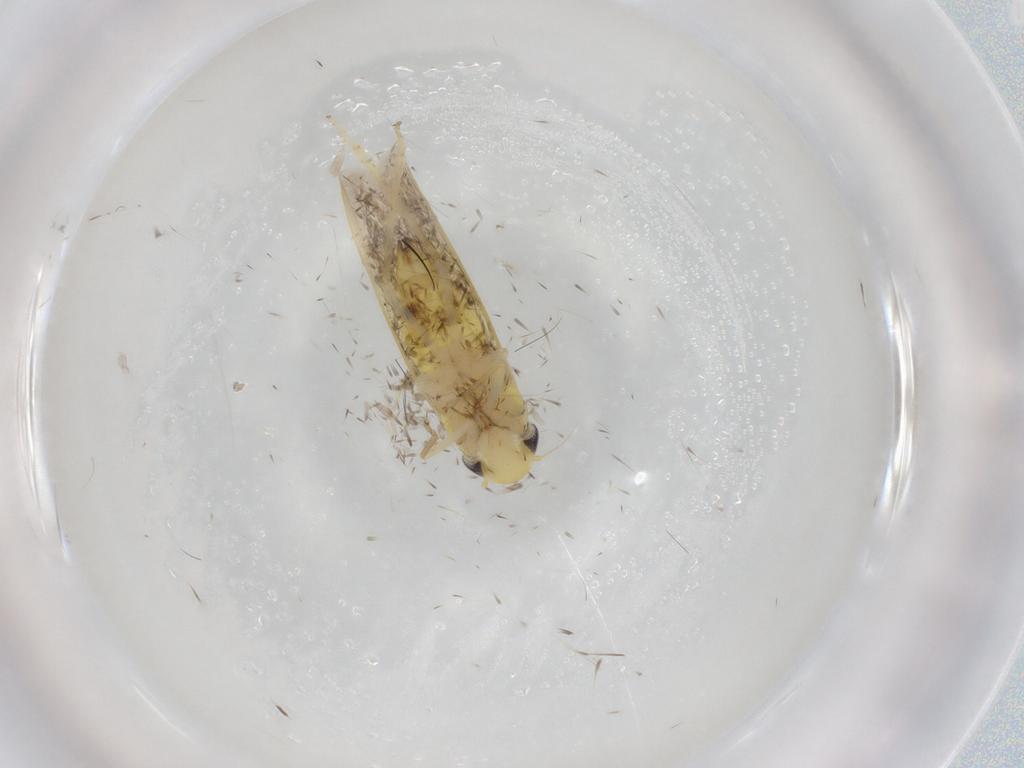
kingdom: Animalia
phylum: Arthropoda
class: Insecta
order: Hemiptera
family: Cicadellidae
